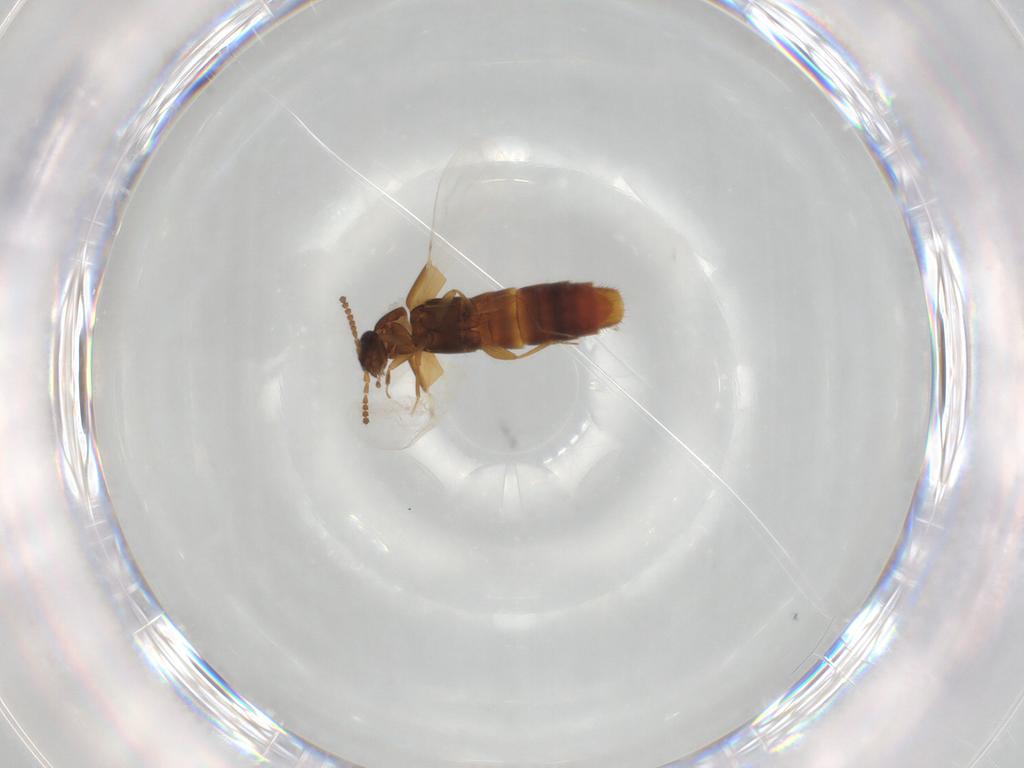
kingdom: Animalia
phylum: Arthropoda
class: Insecta
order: Coleoptera
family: Staphylinidae
